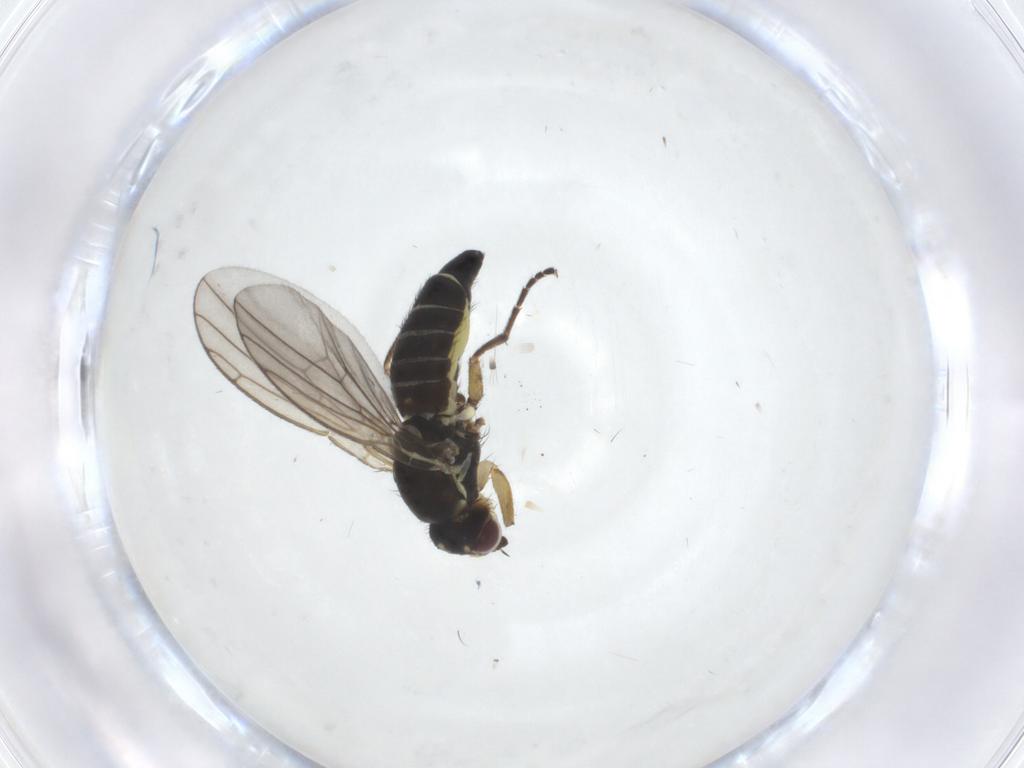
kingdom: Animalia
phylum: Arthropoda
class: Insecta
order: Diptera
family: Agromyzidae
